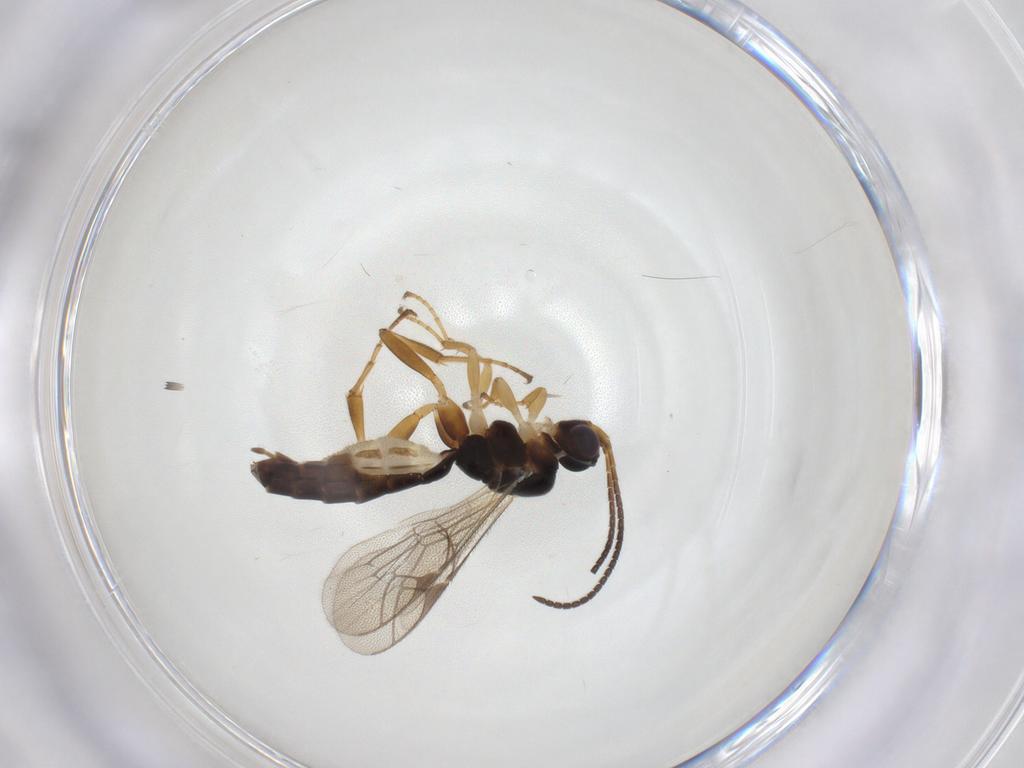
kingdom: Animalia
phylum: Arthropoda
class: Insecta
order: Hymenoptera
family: Ichneumonidae
